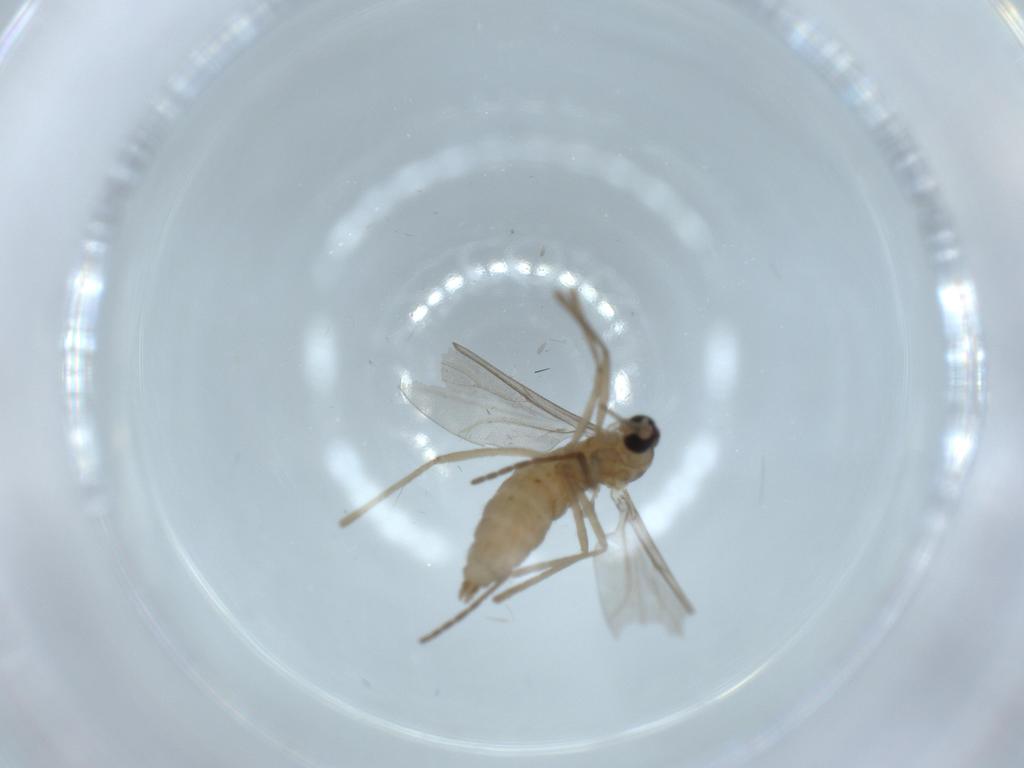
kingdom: Animalia
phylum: Arthropoda
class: Insecta
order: Diptera
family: Cecidomyiidae
